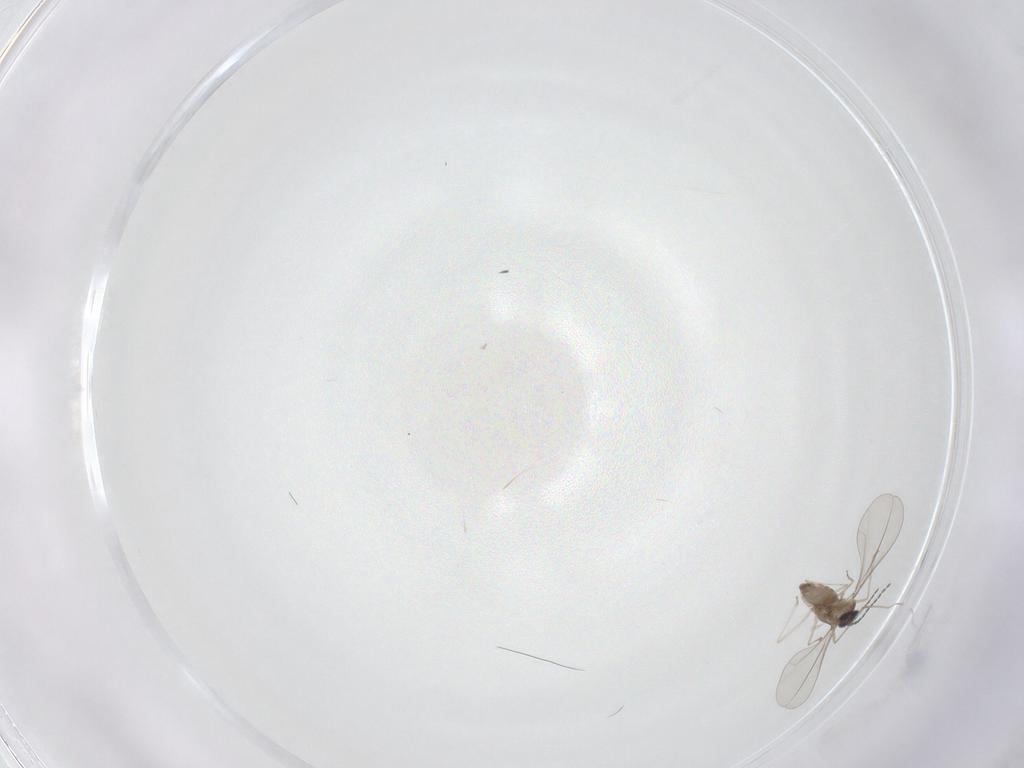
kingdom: Animalia
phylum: Arthropoda
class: Insecta
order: Diptera
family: Cecidomyiidae
